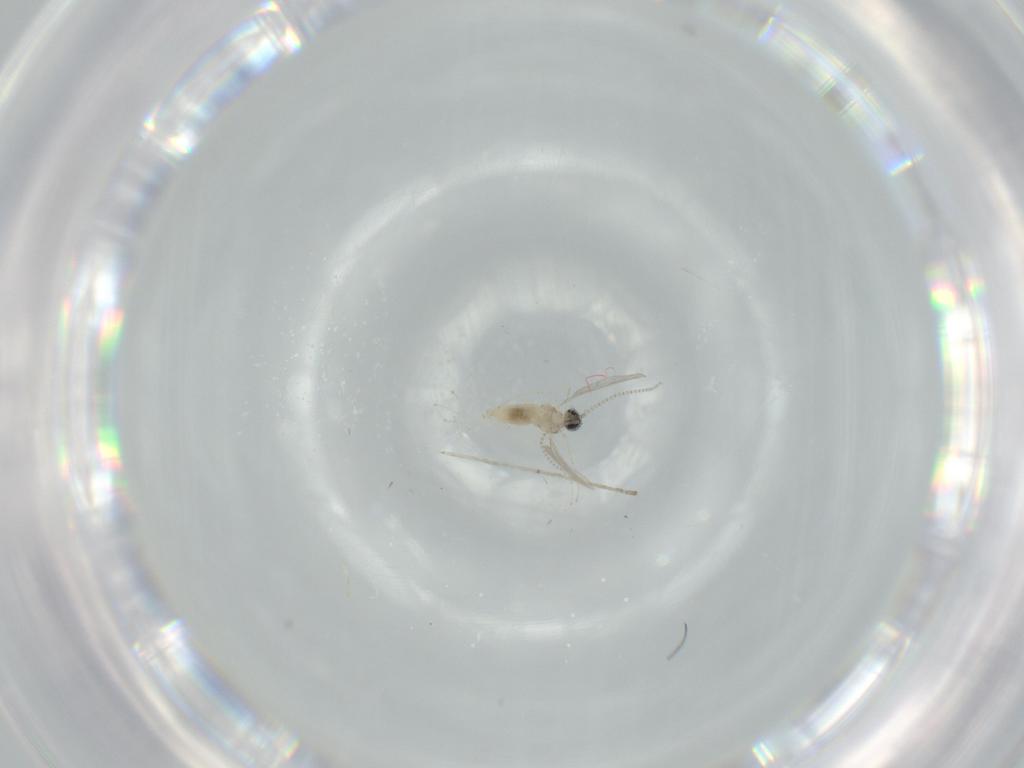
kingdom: Animalia
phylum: Arthropoda
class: Insecta
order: Diptera
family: Cecidomyiidae
